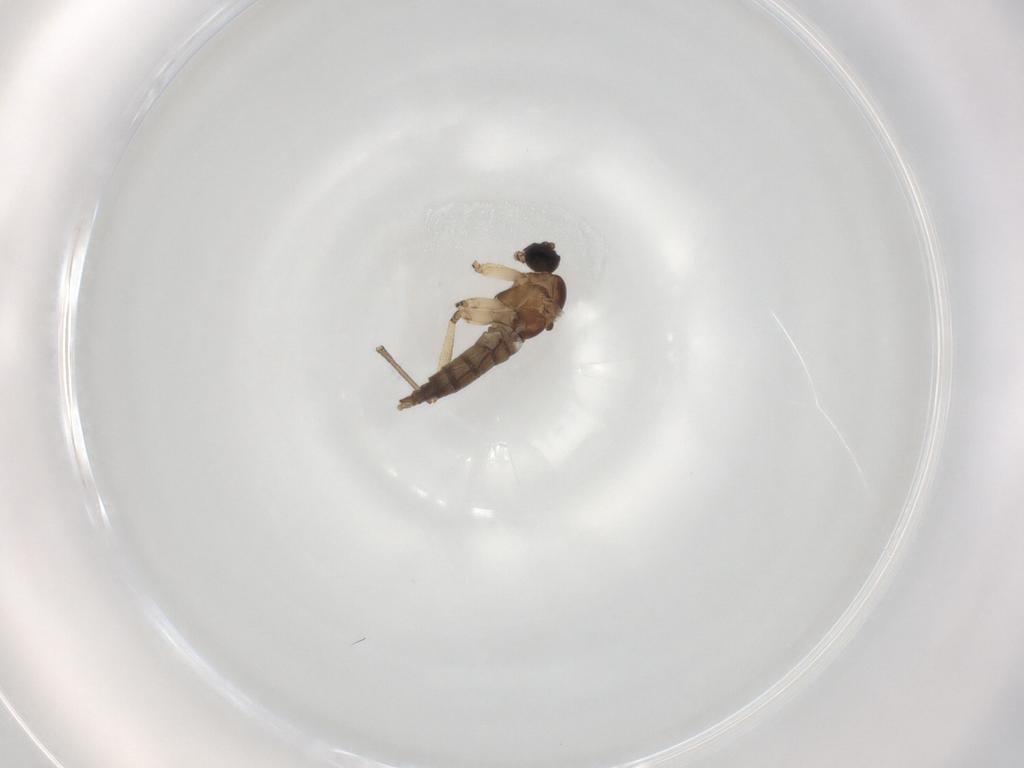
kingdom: Animalia
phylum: Arthropoda
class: Insecta
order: Diptera
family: Sciaridae
